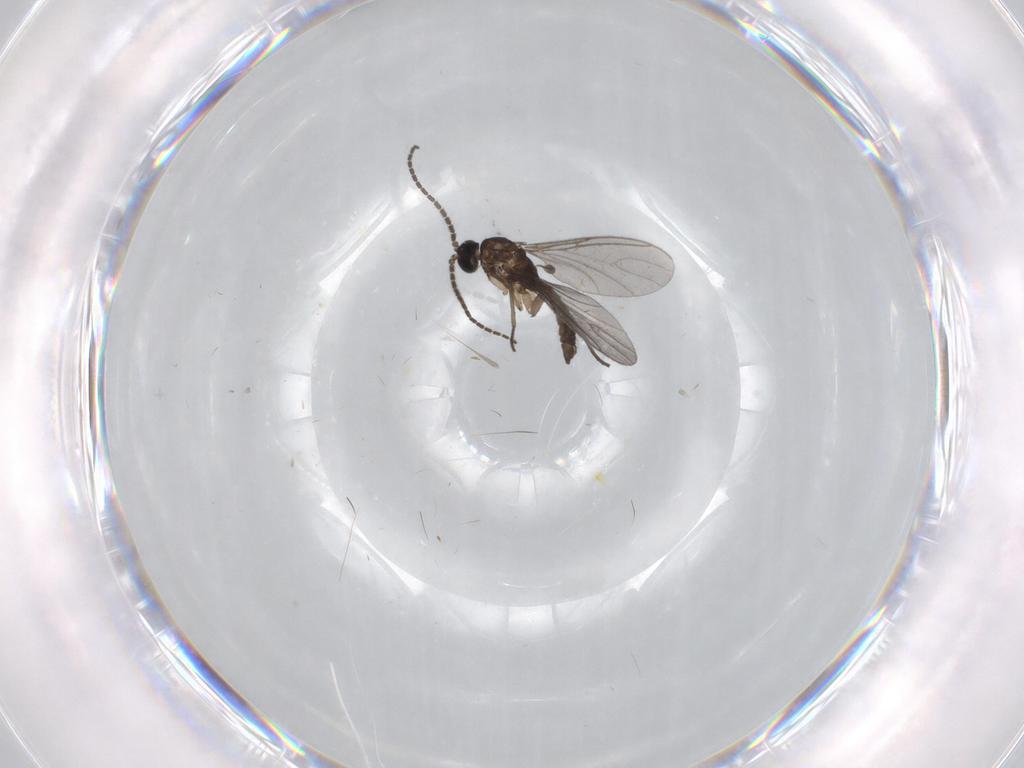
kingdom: Animalia
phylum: Arthropoda
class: Insecta
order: Diptera
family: Sciaridae
